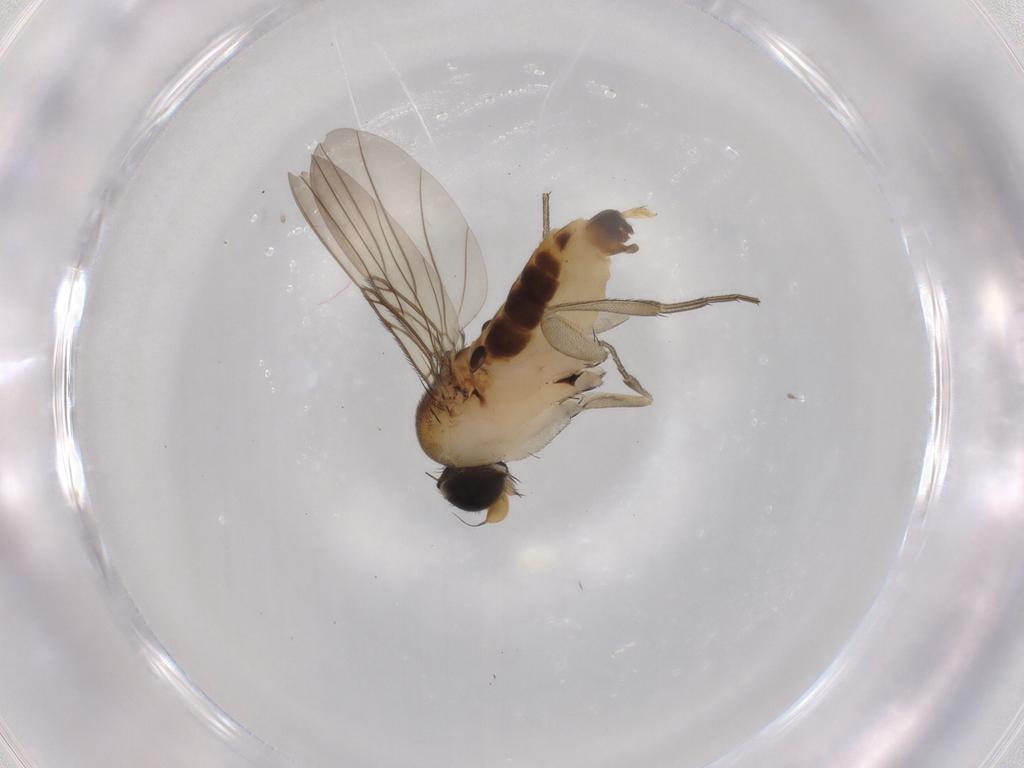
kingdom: Animalia
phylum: Arthropoda
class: Insecta
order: Diptera
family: Phoridae
